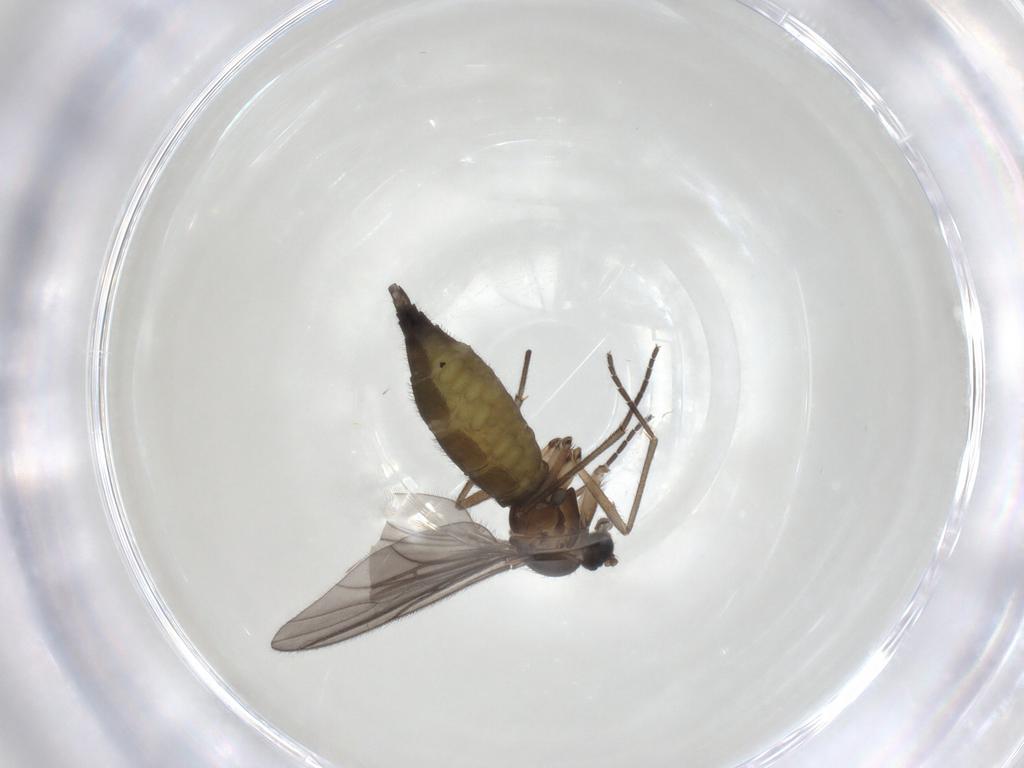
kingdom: Animalia
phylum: Arthropoda
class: Insecta
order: Diptera
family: Sciaridae
